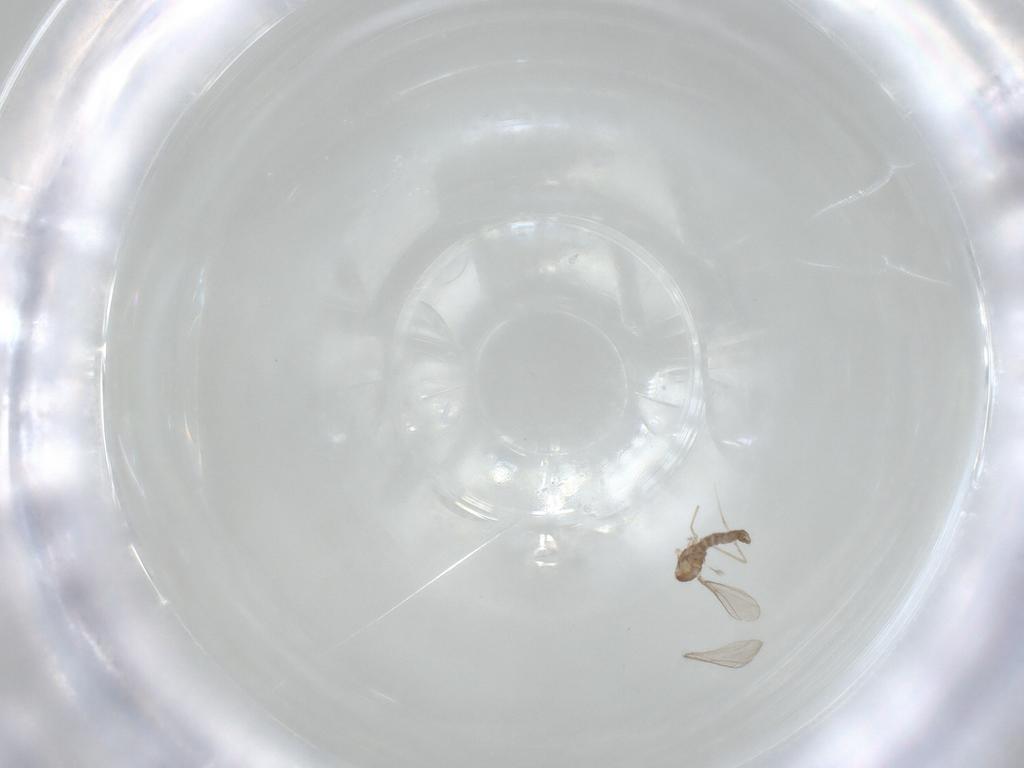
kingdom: Animalia
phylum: Arthropoda
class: Insecta
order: Diptera
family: Cecidomyiidae
